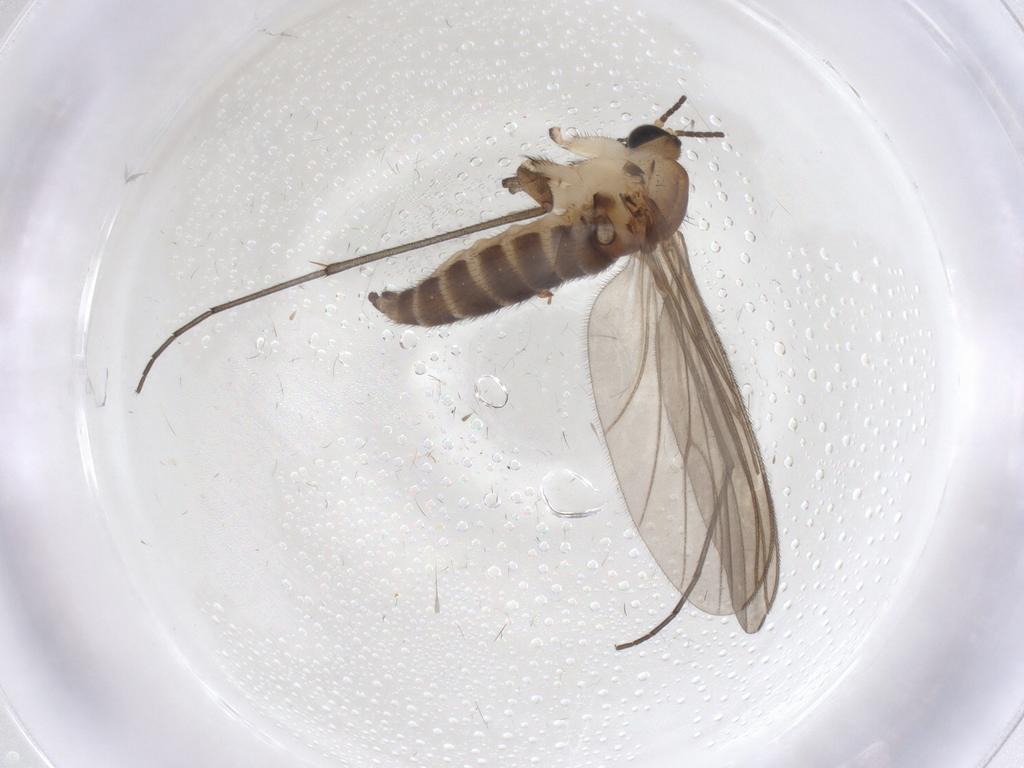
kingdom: Animalia
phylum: Arthropoda
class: Insecta
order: Diptera
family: Sciaridae
